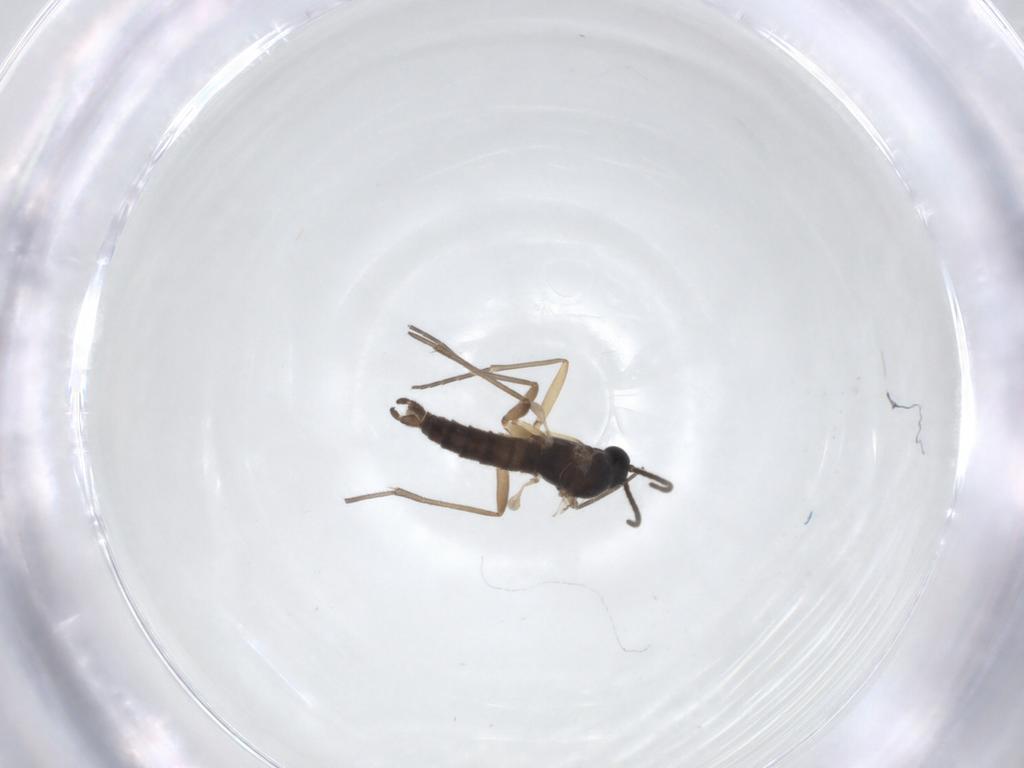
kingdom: Animalia
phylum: Arthropoda
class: Insecta
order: Diptera
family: Sciaridae
